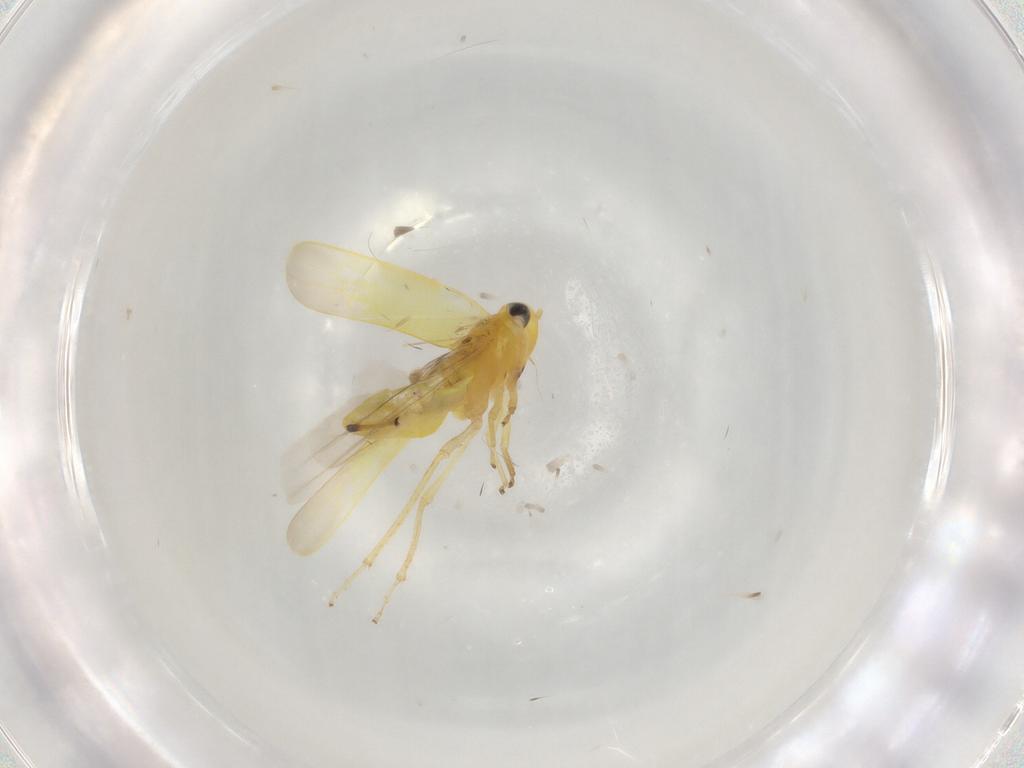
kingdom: Animalia
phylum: Arthropoda
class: Insecta
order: Hemiptera
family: Cicadellidae
